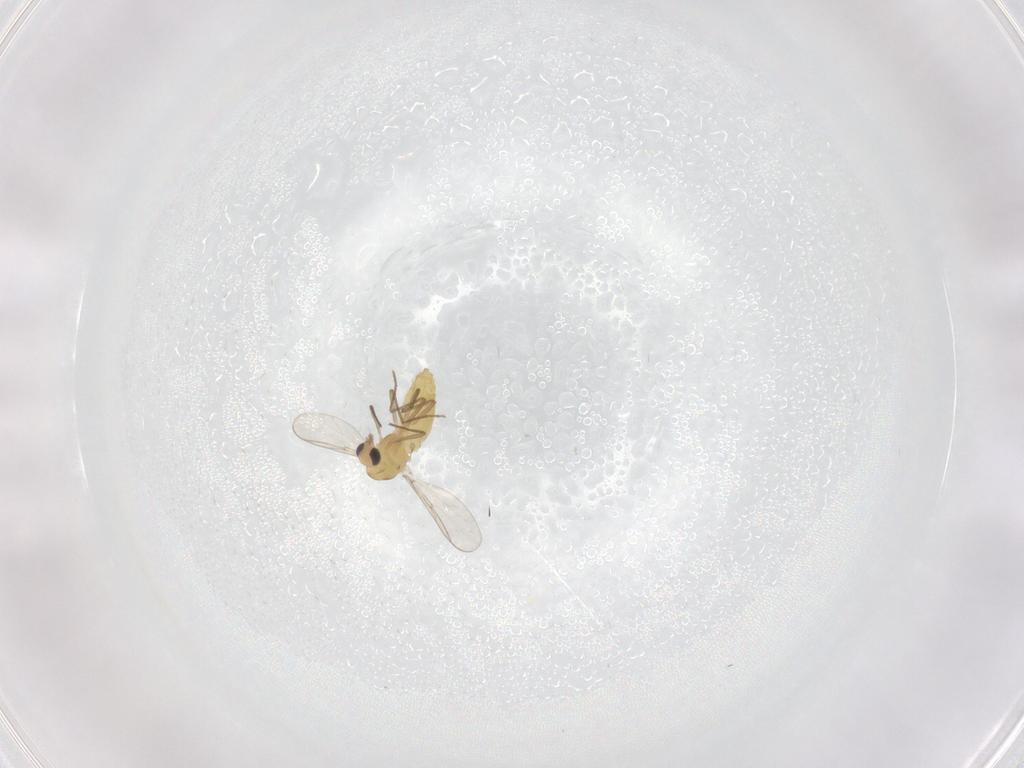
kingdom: Animalia
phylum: Arthropoda
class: Insecta
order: Diptera
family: Chironomidae
